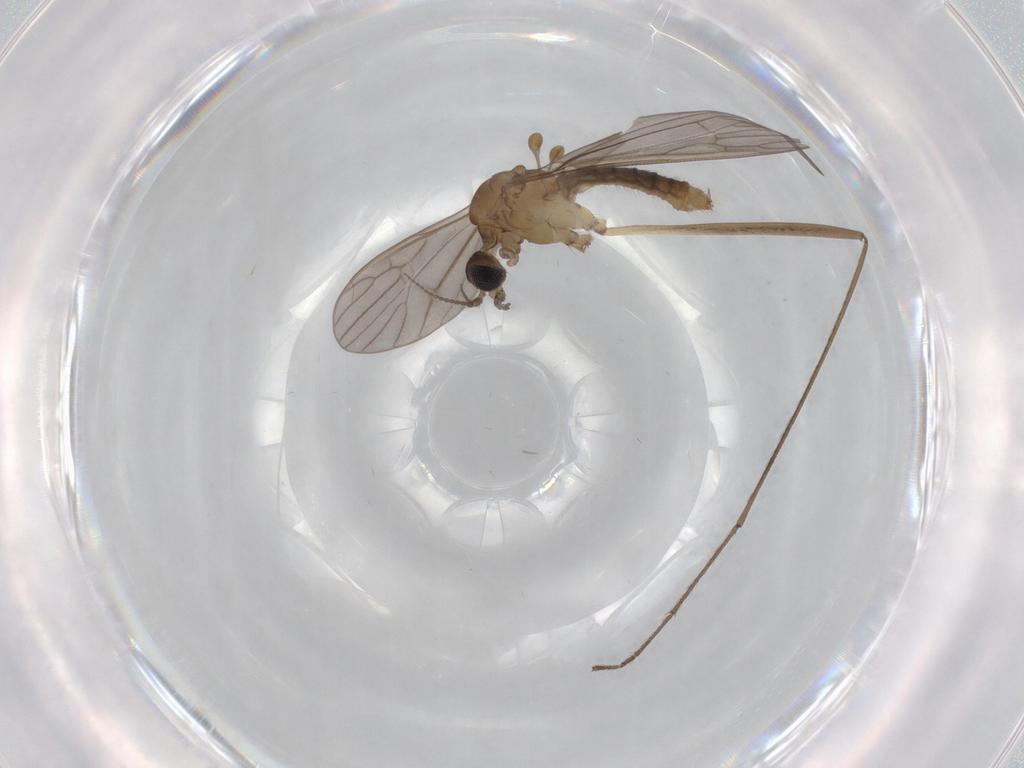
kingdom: Animalia
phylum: Arthropoda
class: Insecta
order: Diptera
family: Phoridae
